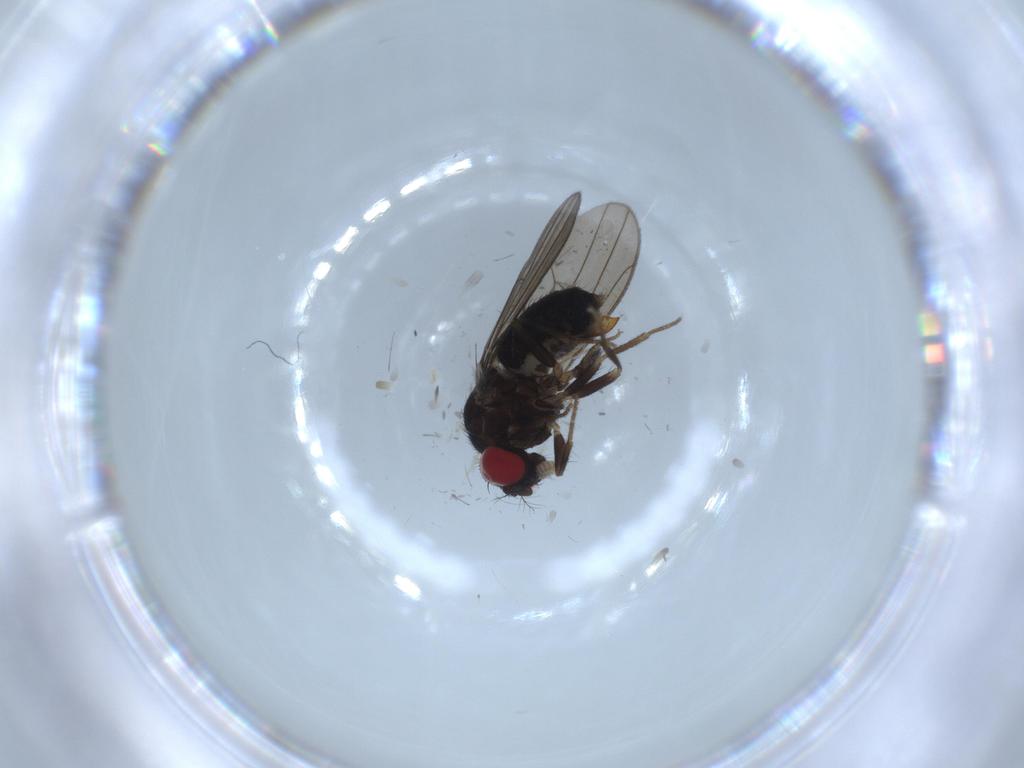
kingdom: Animalia
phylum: Arthropoda
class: Insecta
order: Diptera
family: Drosophilidae
